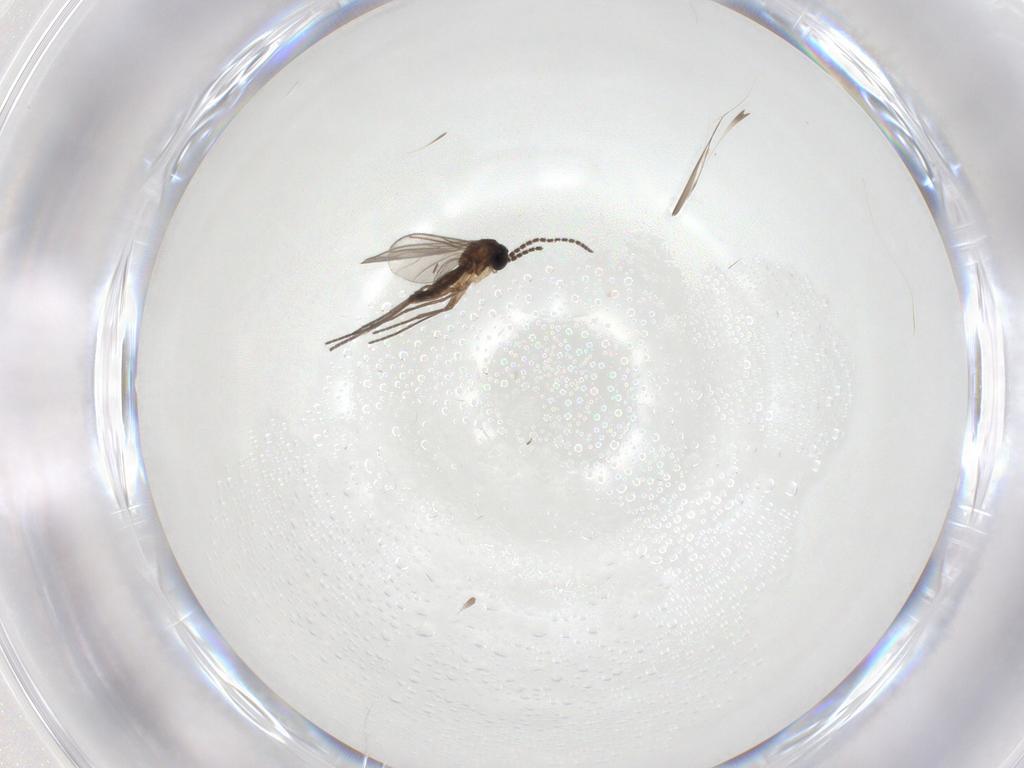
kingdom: Animalia
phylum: Arthropoda
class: Insecta
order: Diptera
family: Sciaridae
